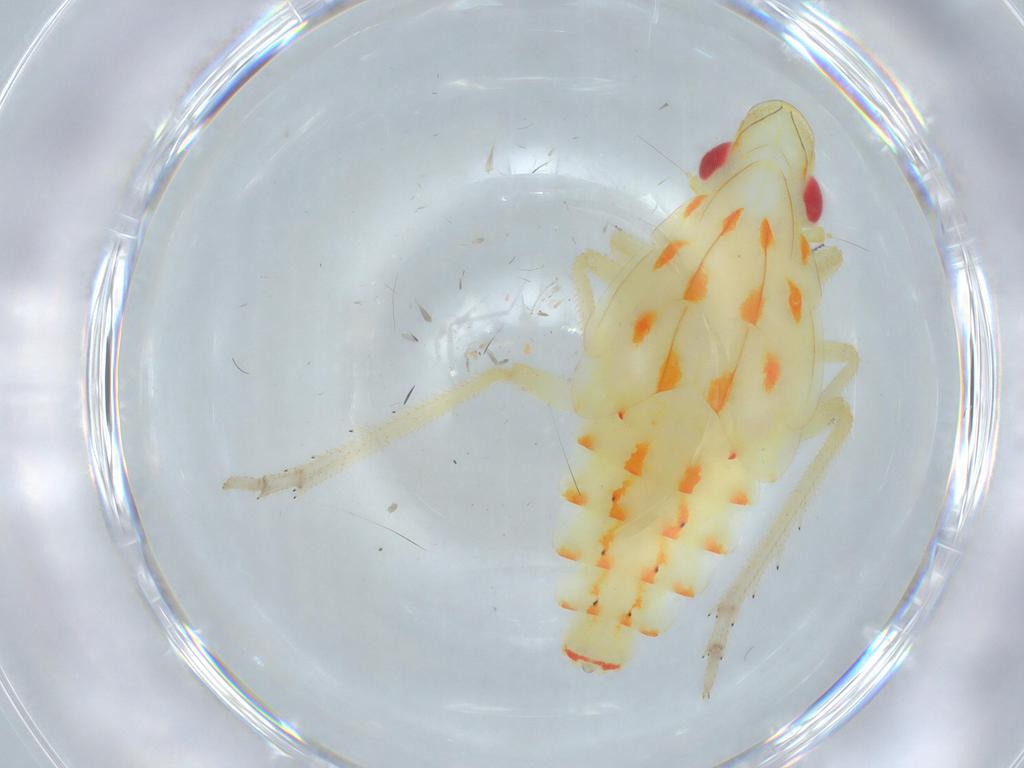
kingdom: Animalia
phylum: Arthropoda
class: Insecta
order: Hemiptera
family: Tropiduchidae
